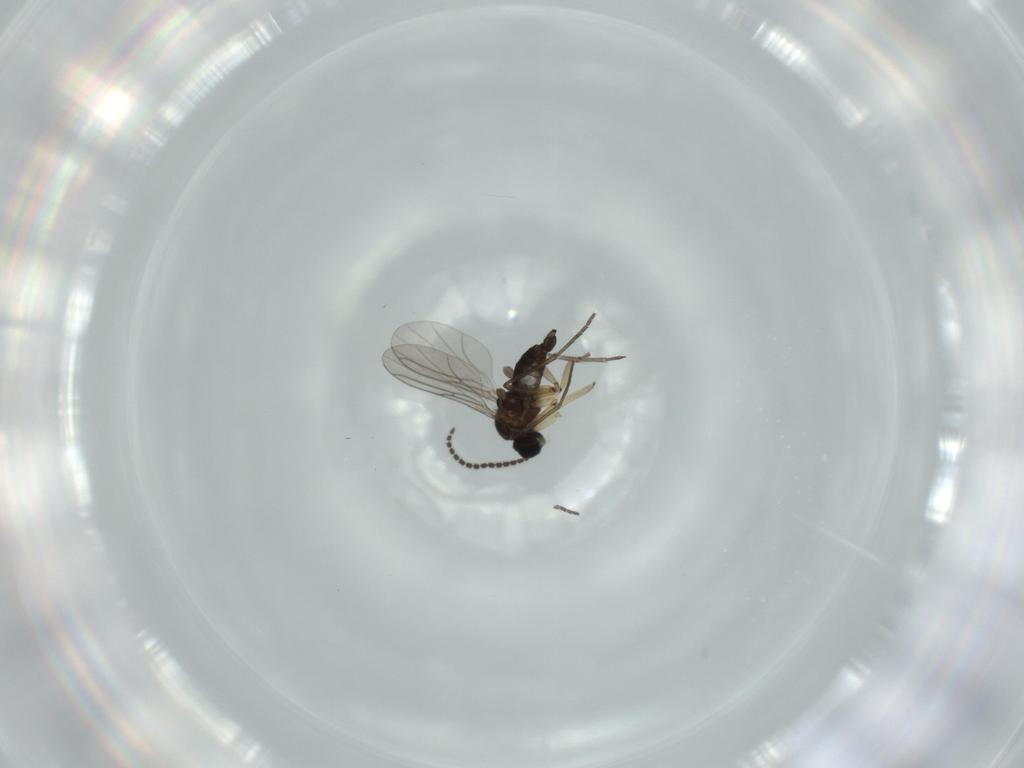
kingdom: Animalia
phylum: Arthropoda
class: Insecta
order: Diptera
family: Sciaridae
